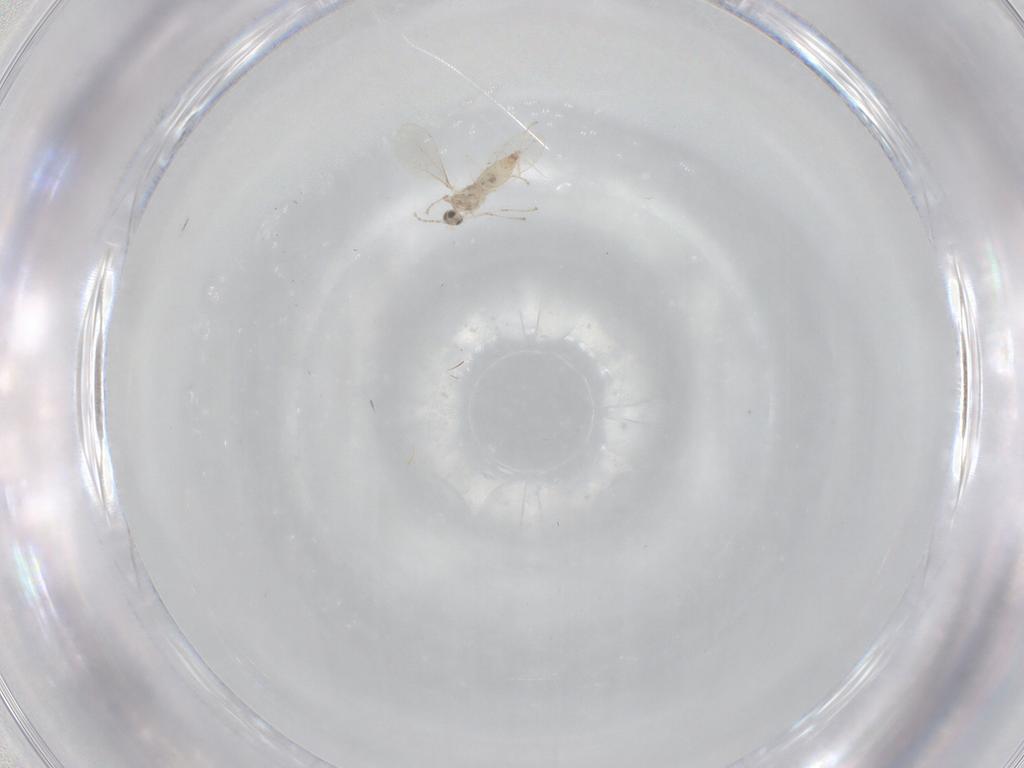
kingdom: Animalia
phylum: Arthropoda
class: Insecta
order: Diptera
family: Cecidomyiidae
